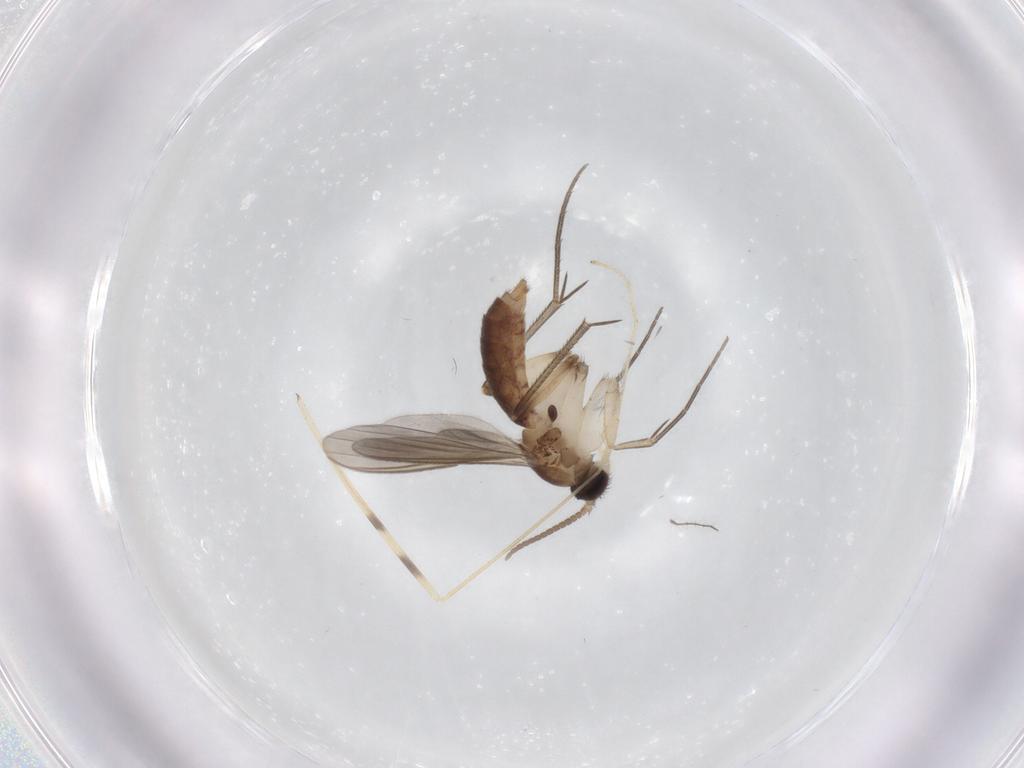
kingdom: Animalia
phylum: Arthropoda
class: Insecta
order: Diptera
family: Mycetophilidae
